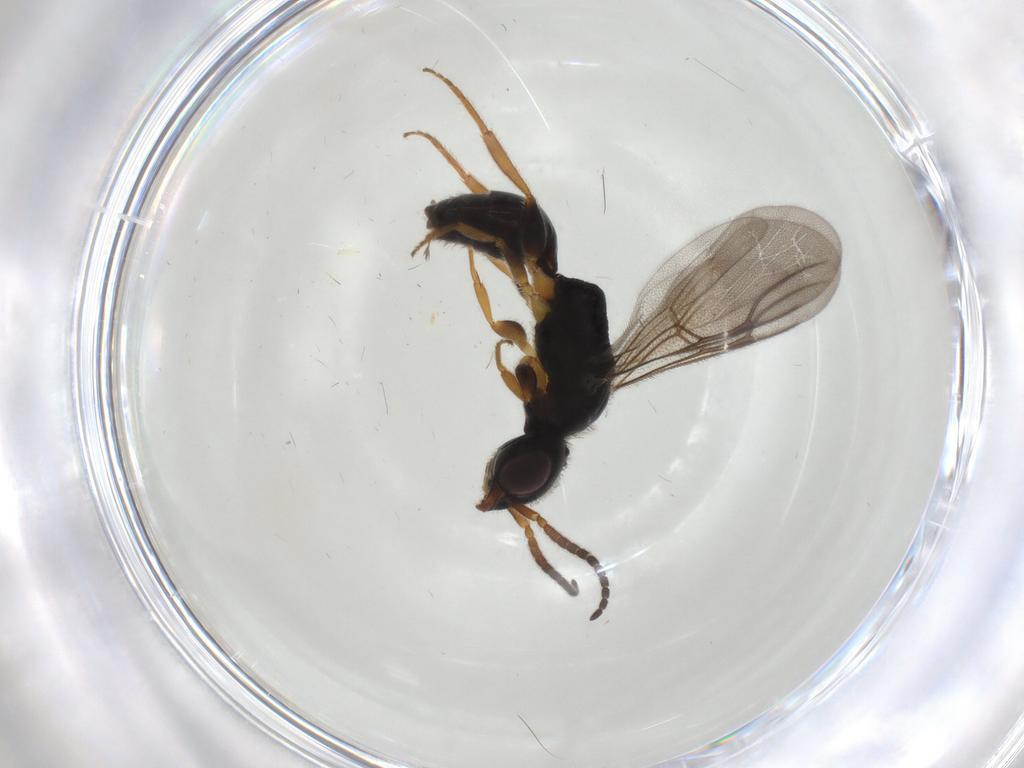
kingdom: Animalia
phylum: Arthropoda
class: Insecta
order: Hymenoptera
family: Bethylidae
